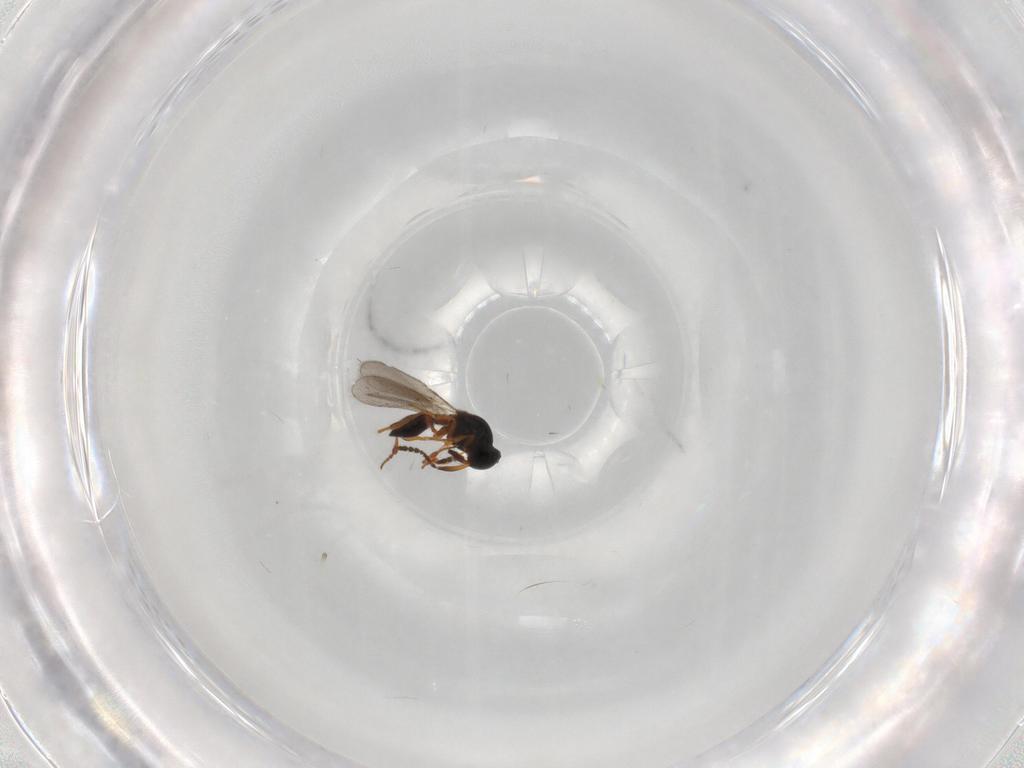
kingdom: Animalia
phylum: Arthropoda
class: Insecta
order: Hymenoptera
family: Platygastridae
